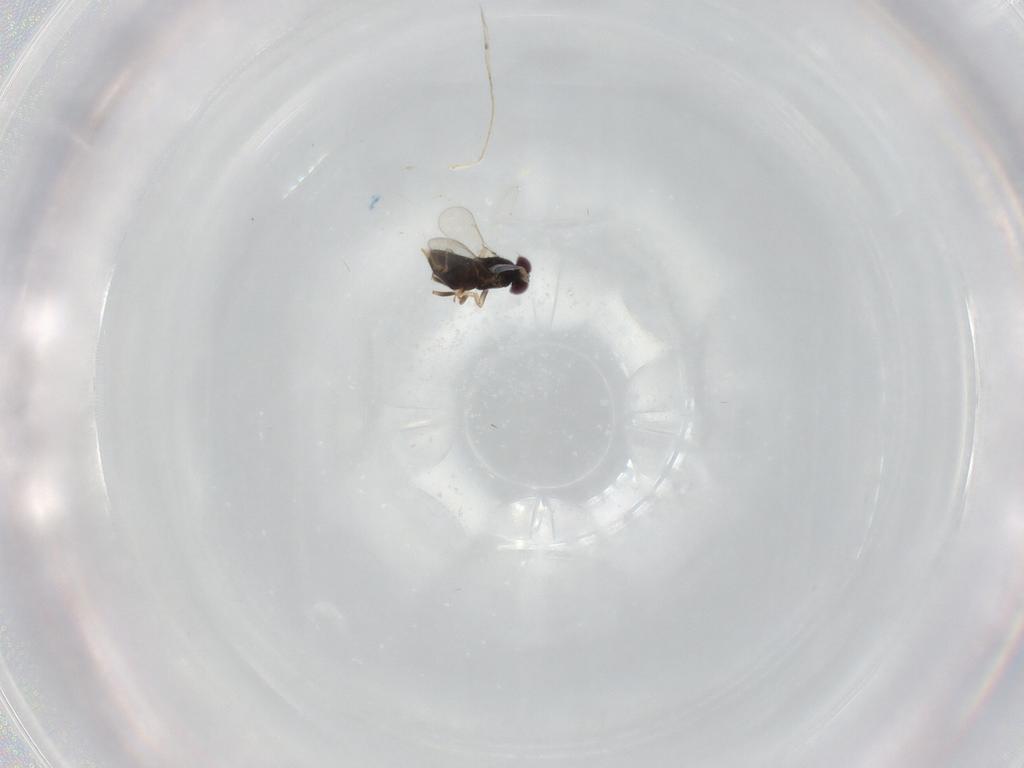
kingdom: Animalia
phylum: Arthropoda
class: Insecta
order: Hymenoptera
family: Aphelinidae
